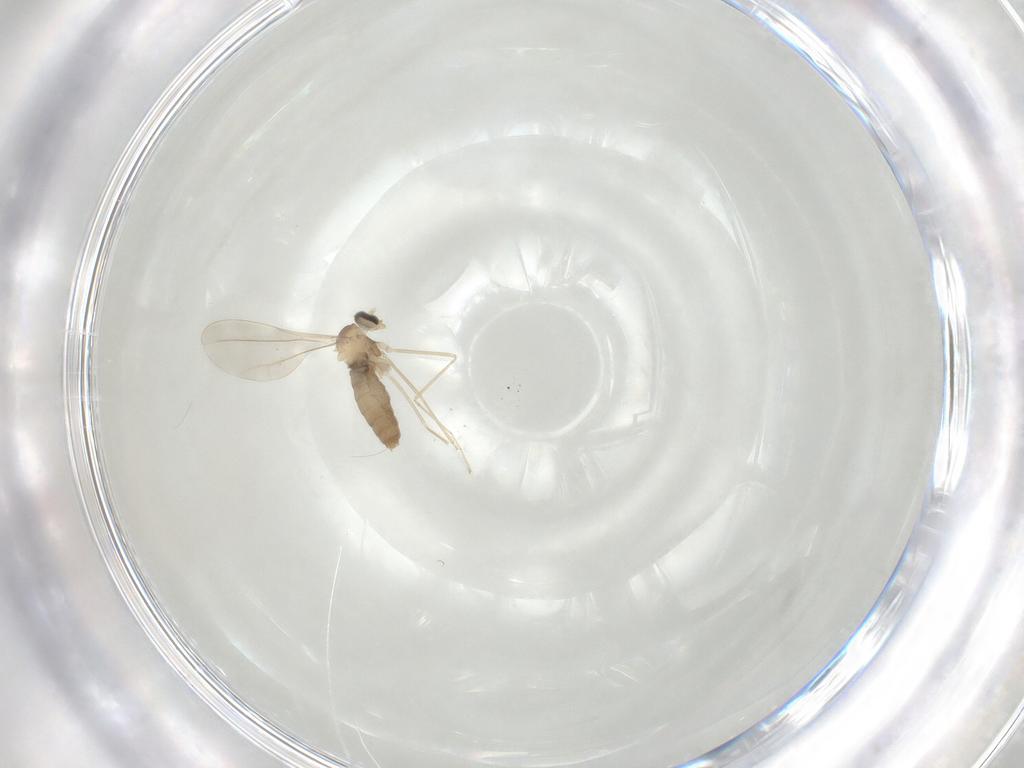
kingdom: Animalia
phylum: Arthropoda
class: Insecta
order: Diptera
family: Cecidomyiidae
